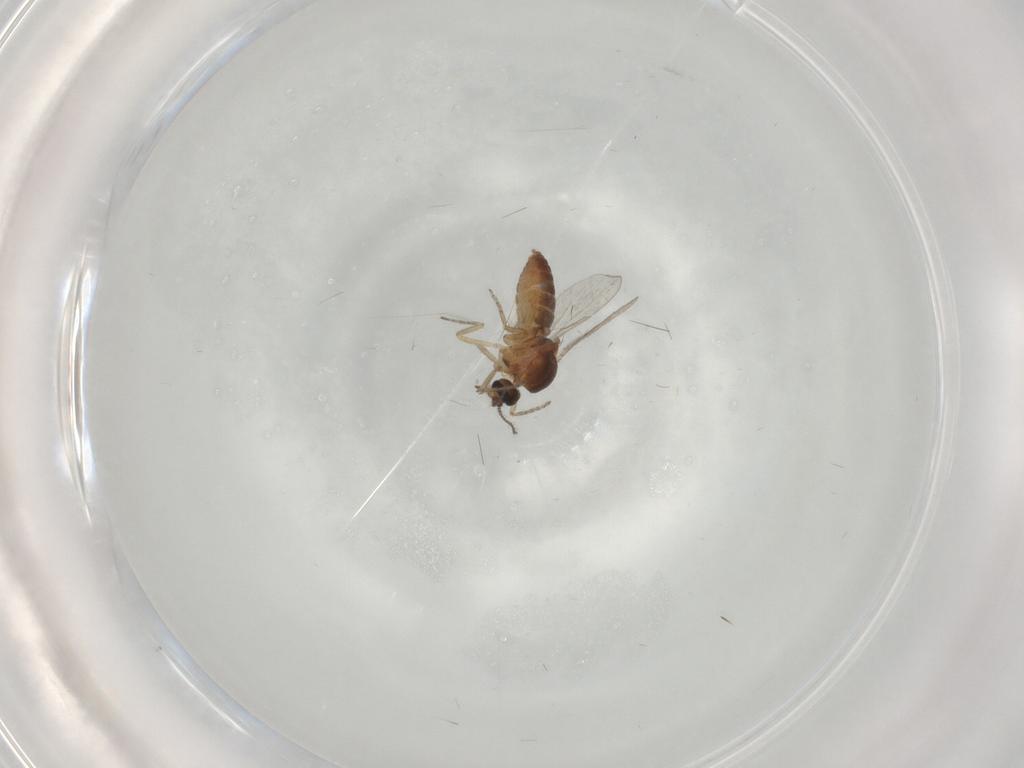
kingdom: Animalia
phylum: Arthropoda
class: Insecta
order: Diptera
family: Ceratopogonidae
